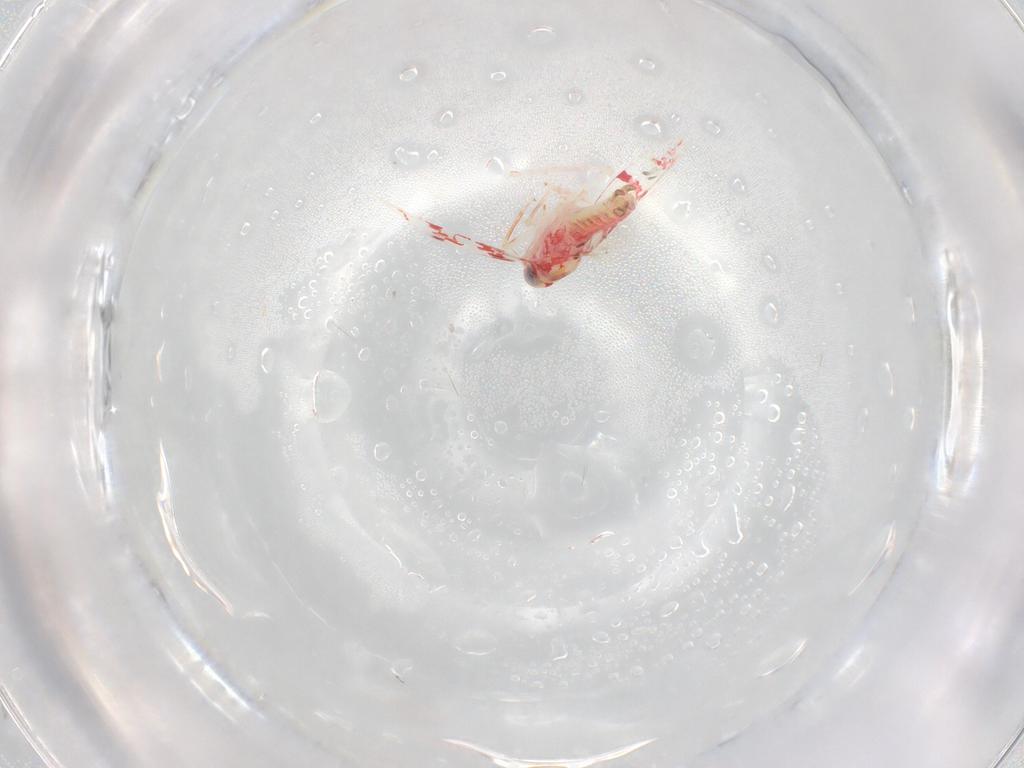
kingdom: Animalia
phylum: Arthropoda
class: Insecta
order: Hemiptera
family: Cicadellidae
